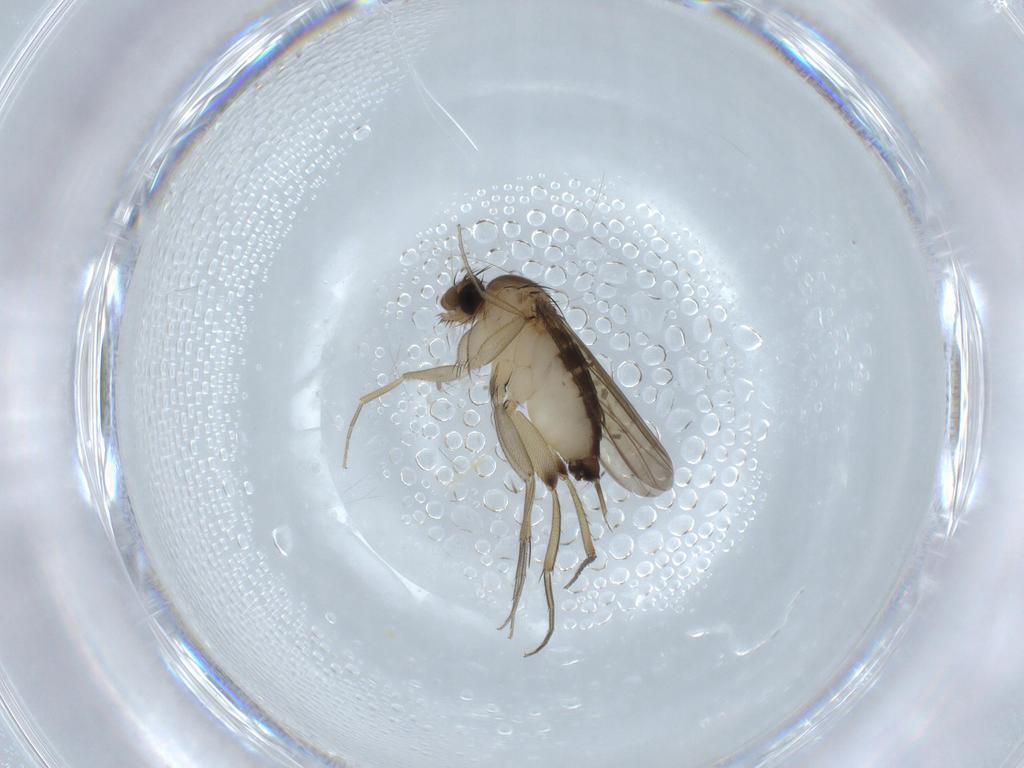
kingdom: Animalia
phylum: Arthropoda
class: Insecta
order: Diptera
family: Phoridae
